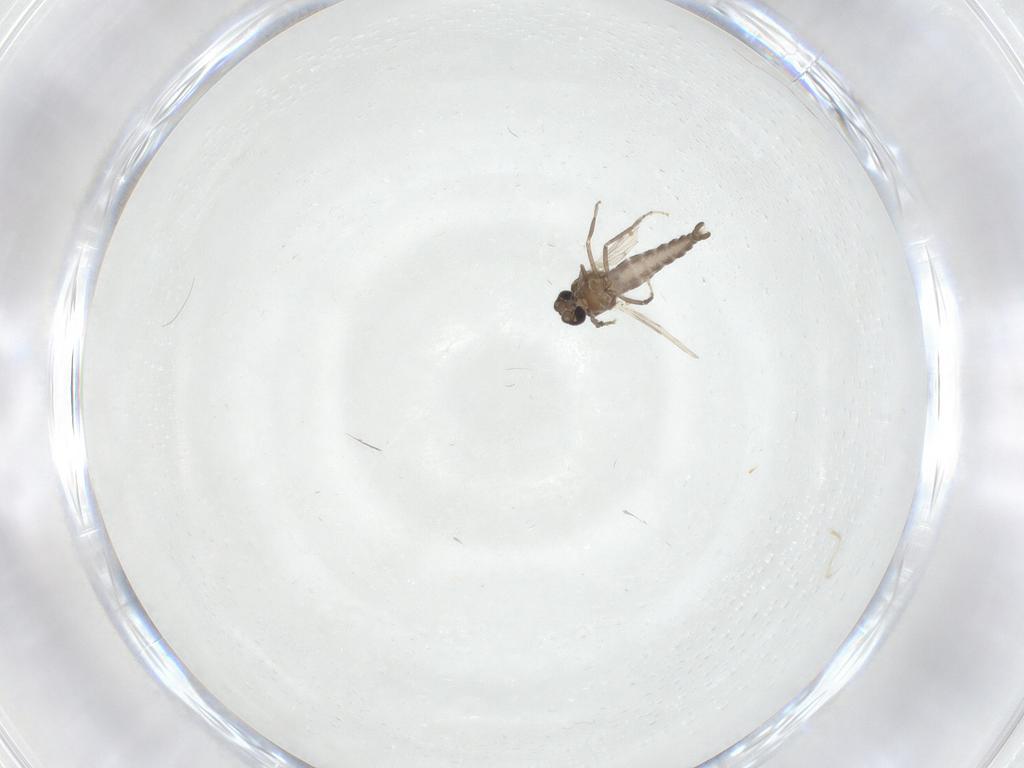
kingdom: Animalia
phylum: Arthropoda
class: Insecta
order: Diptera
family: Ceratopogonidae
